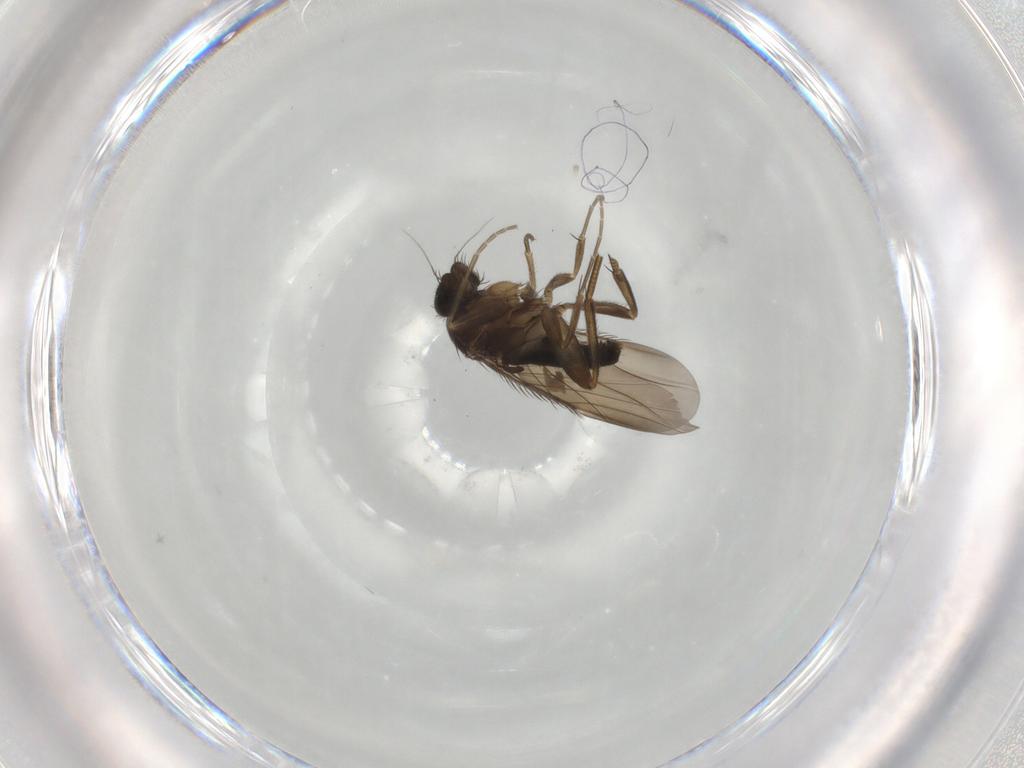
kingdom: Animalia
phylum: Arthropoda
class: Insecta
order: Diptera
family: Phoridae
